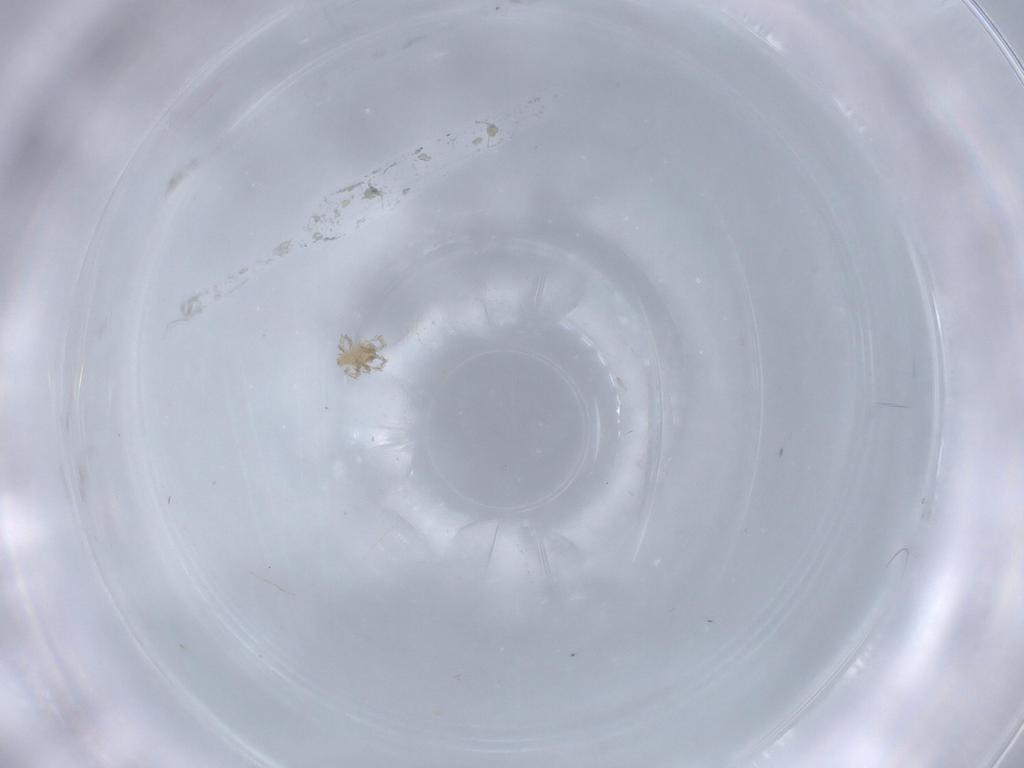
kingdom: Animalia
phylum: Arthropoda
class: Arachnida
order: Trombidiformes
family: Erythraeidae
